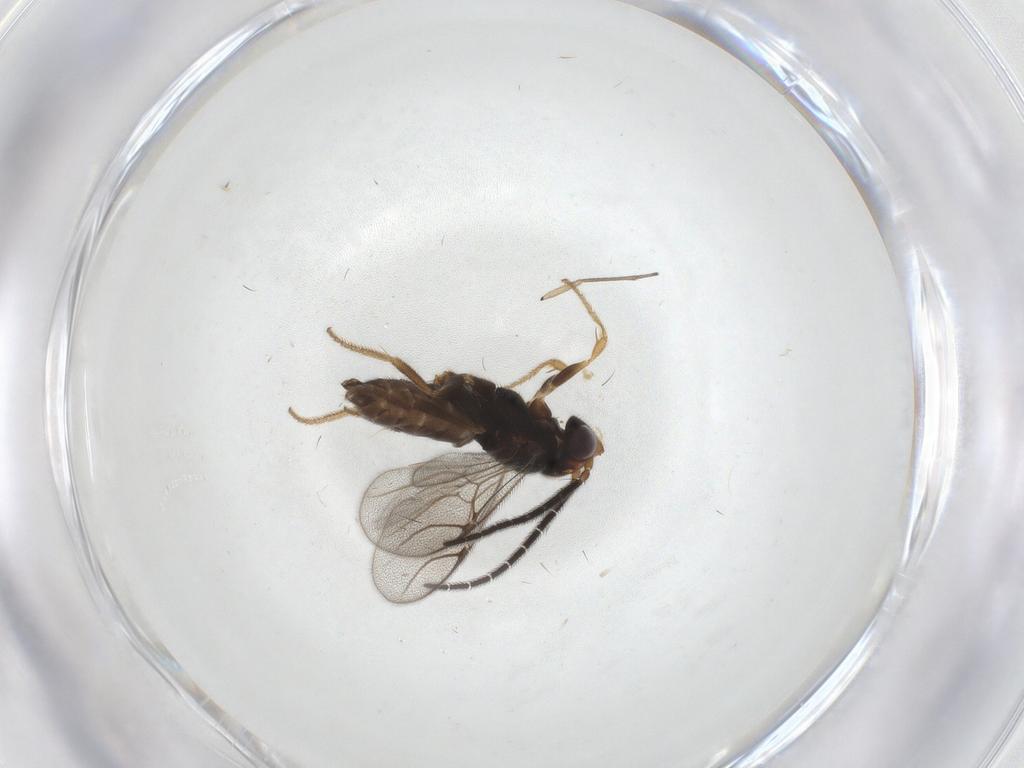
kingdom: Animalia
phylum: Arthropoda
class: Insecta
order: Hymenoptera
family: Dryinidae
